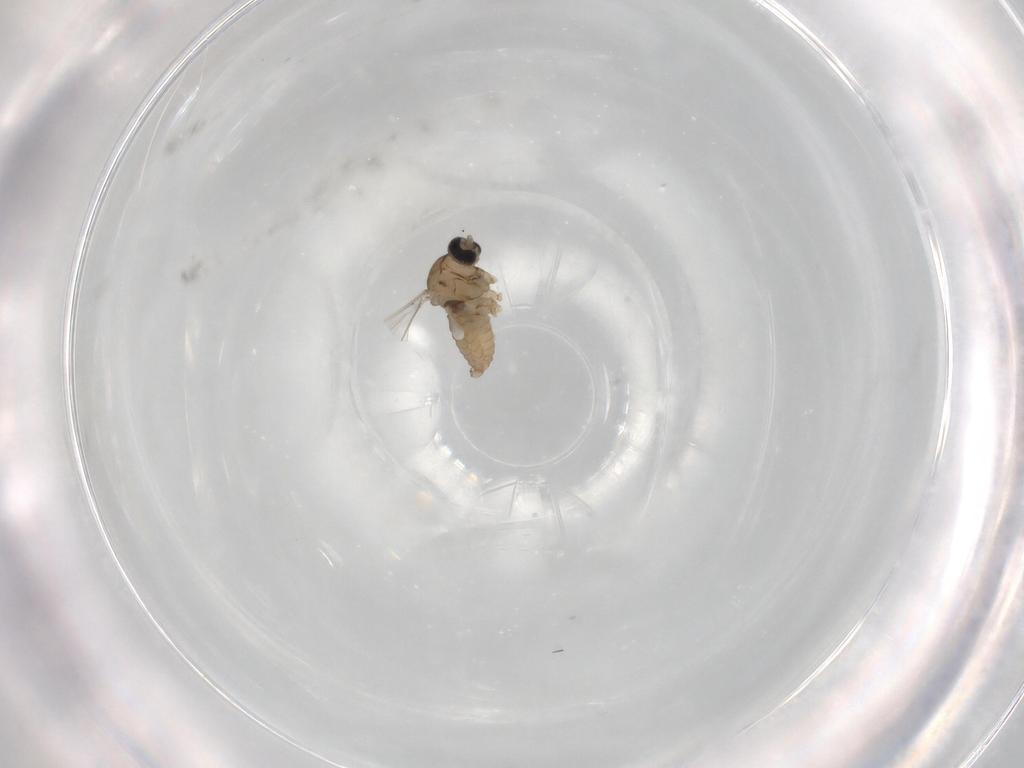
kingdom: Animalia
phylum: Arthropoda
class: Insecta
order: Diptera
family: Cecidomyiidae
